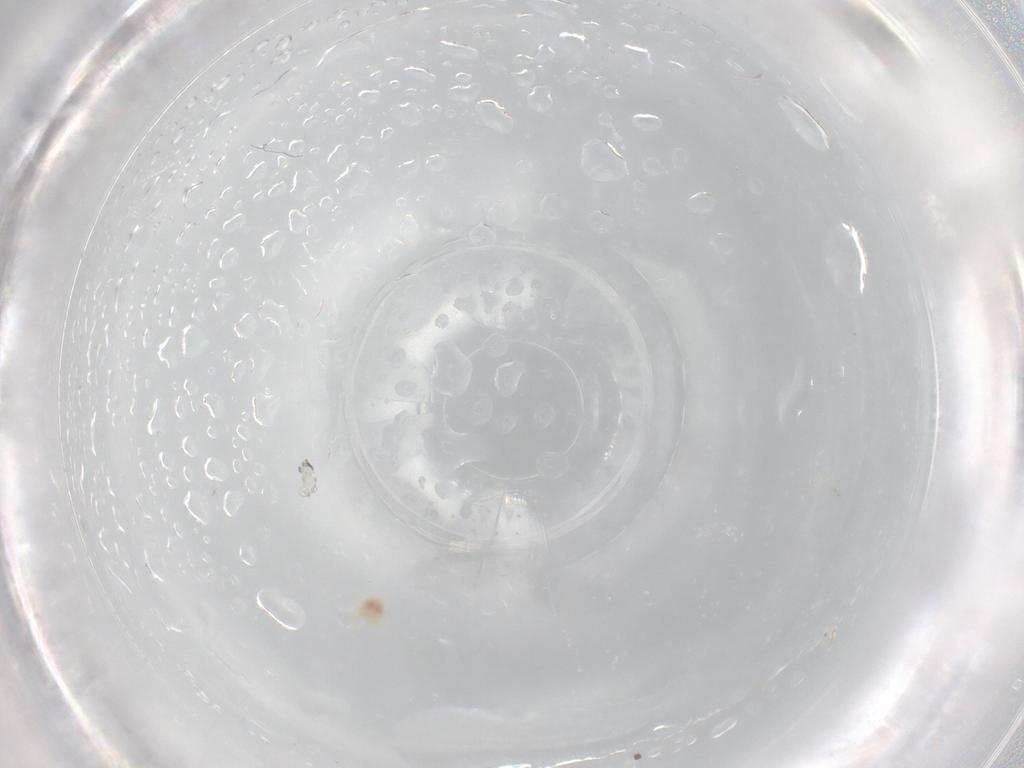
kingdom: Animalia
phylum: Arthropoda
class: Arachnida
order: Trombidiformes
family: Microtrombidiidae
